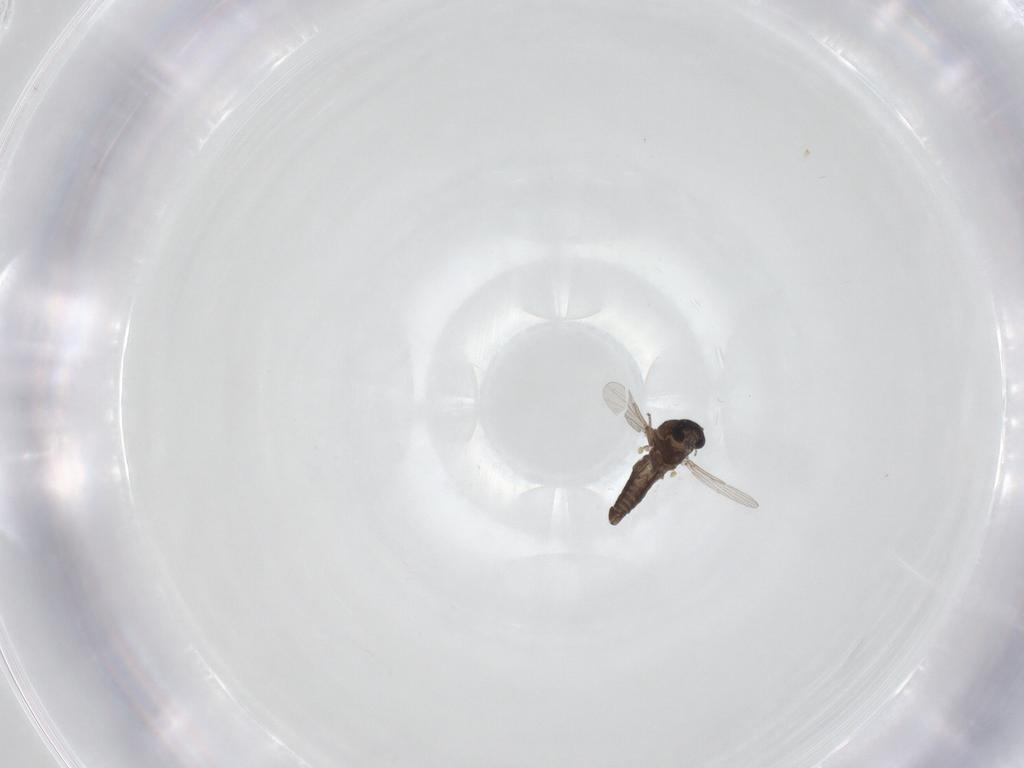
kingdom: Animalia
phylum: Arthropoda
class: Insecta
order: Diptera
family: Ceratopogonidae
